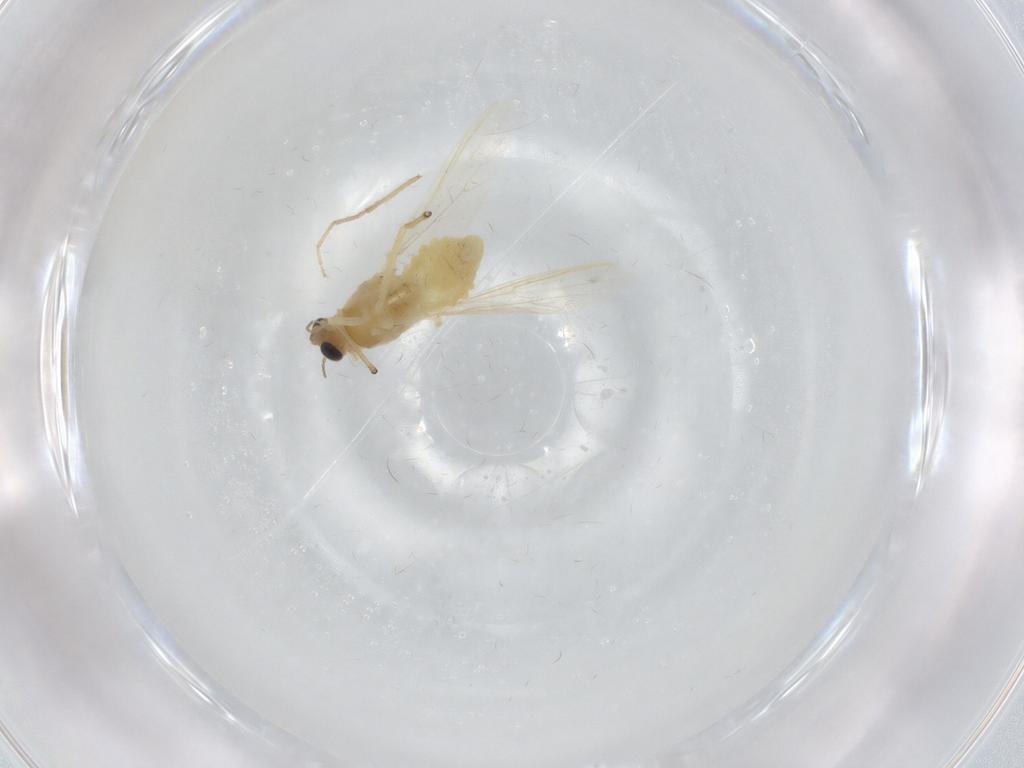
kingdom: Animalia
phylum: Arthropoda
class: Insecta
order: Diptera
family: Chironomidae
